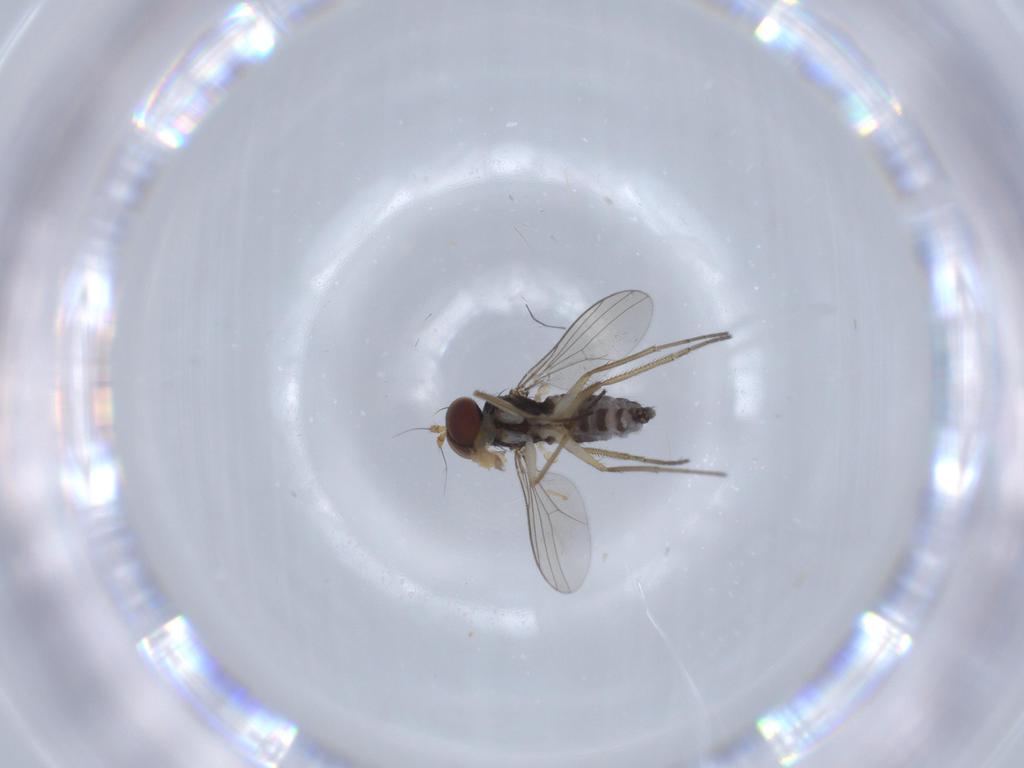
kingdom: Animalia
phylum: Arthropoda
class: Insecta
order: Diptera
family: Dolichopodidae
